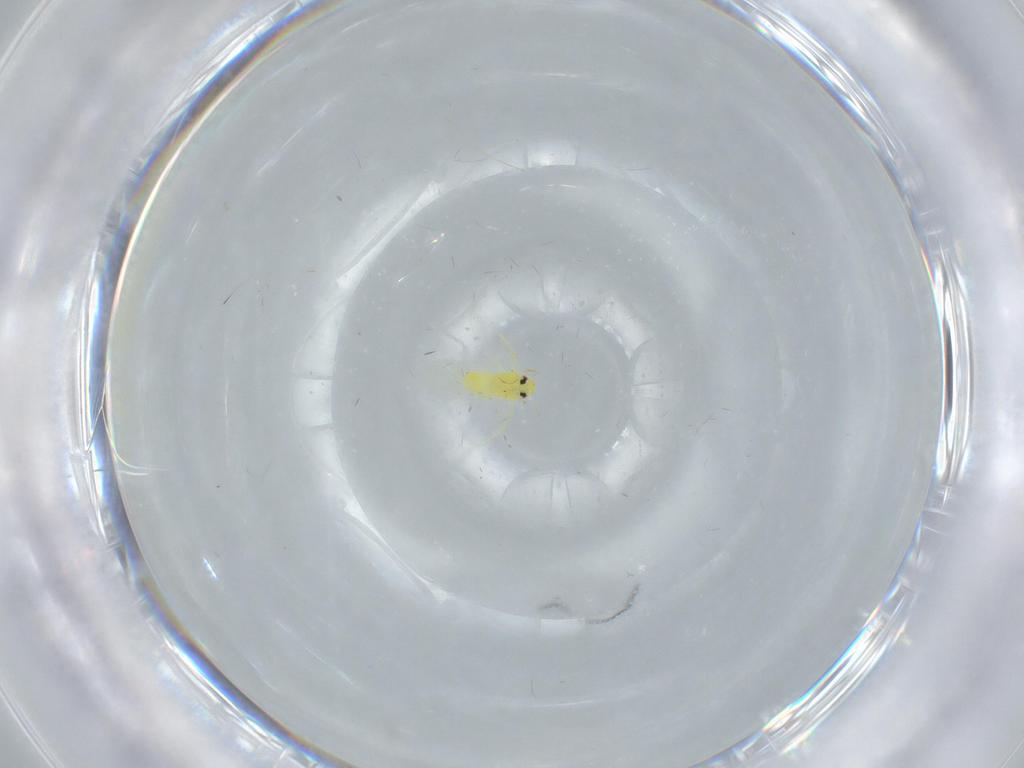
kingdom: Animalia
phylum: Arthropoda
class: Insecta
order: Hemiptera
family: Aleyrodidae
